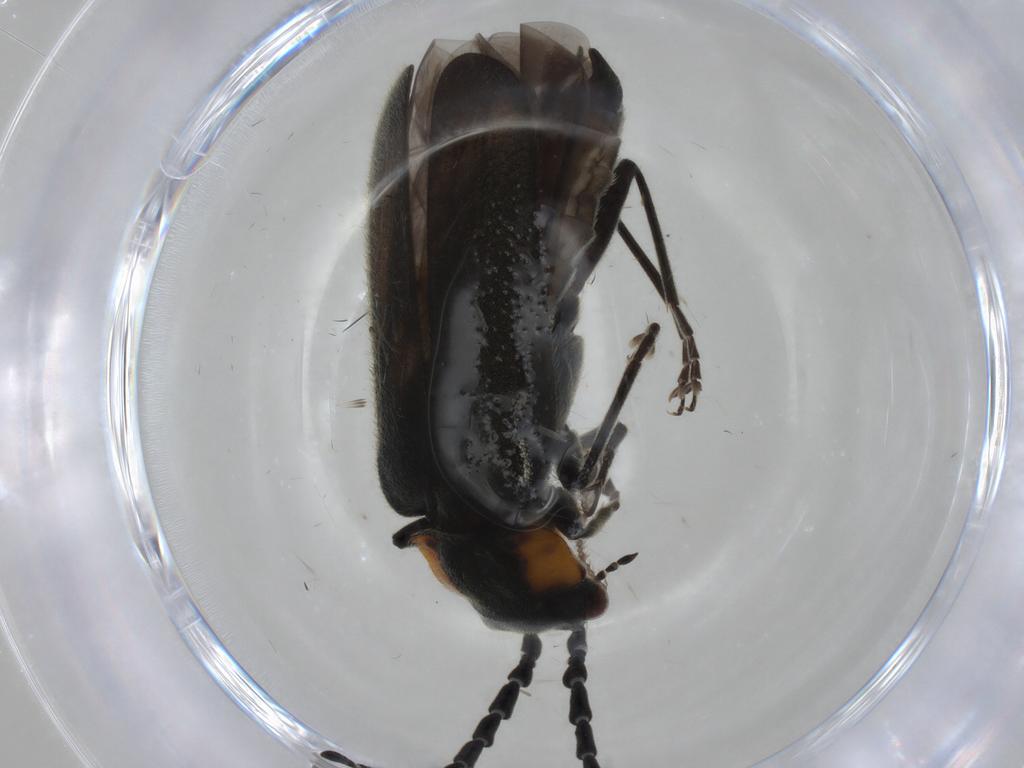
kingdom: Animalia
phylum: Arthropoda
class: Insecta
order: Coleoptera
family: Cantharidae
